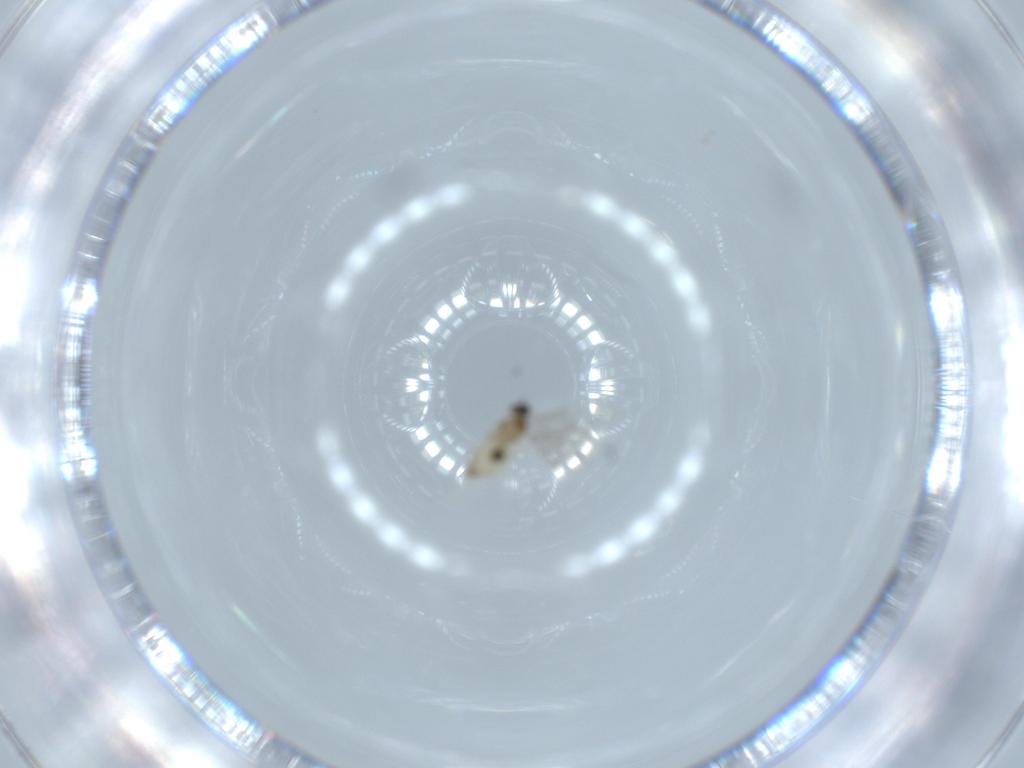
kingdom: Animalia
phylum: Arthropoda
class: Insecta
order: Diptera
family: Cecidomyiidae
